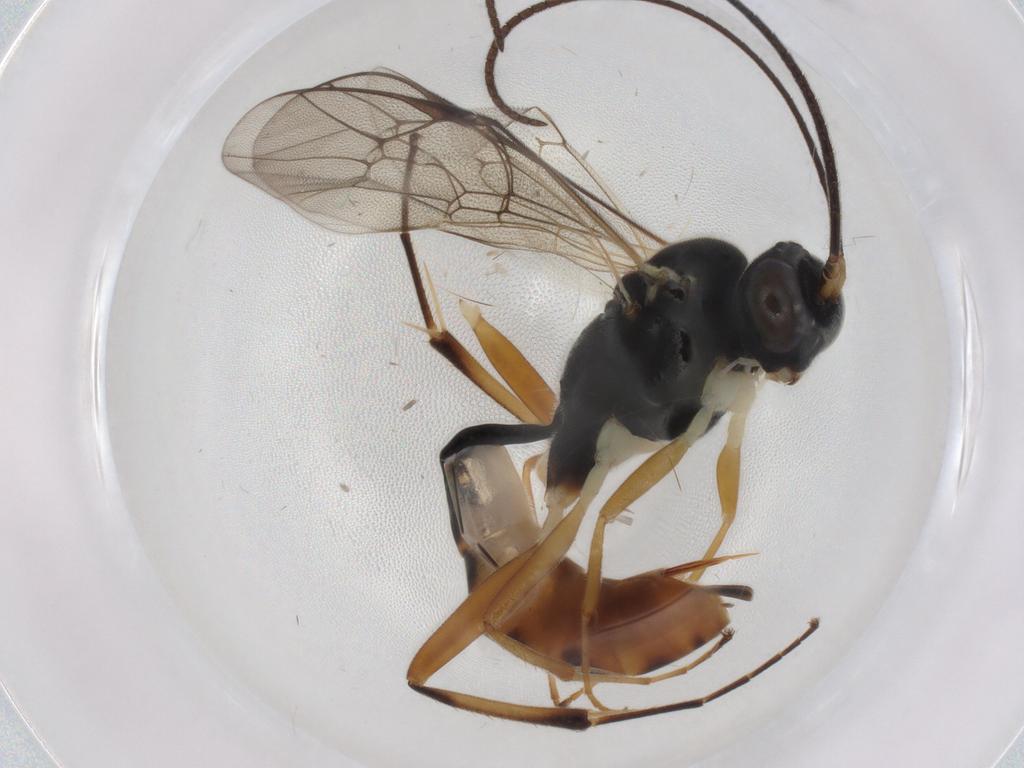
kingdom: Animalia
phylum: Arthropoda
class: Insecta
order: Hymenoptera
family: Ichneumonidae
